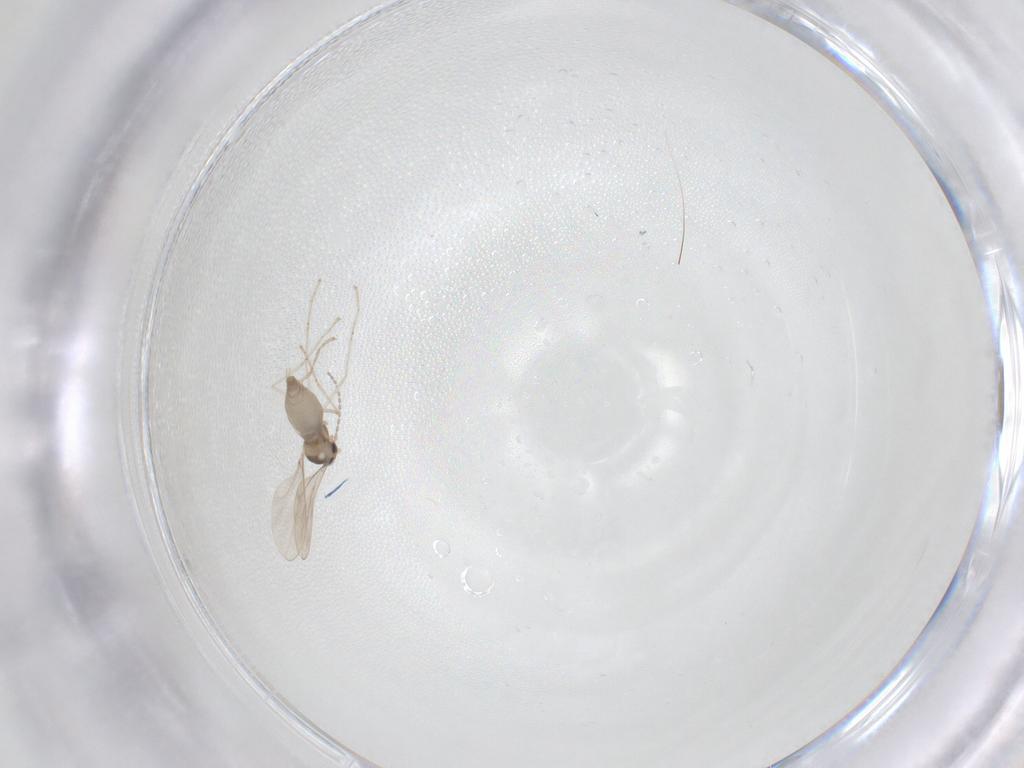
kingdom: Animalia
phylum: Arthropoda
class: Insecta
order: Diptera
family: Cecidomyiidae
